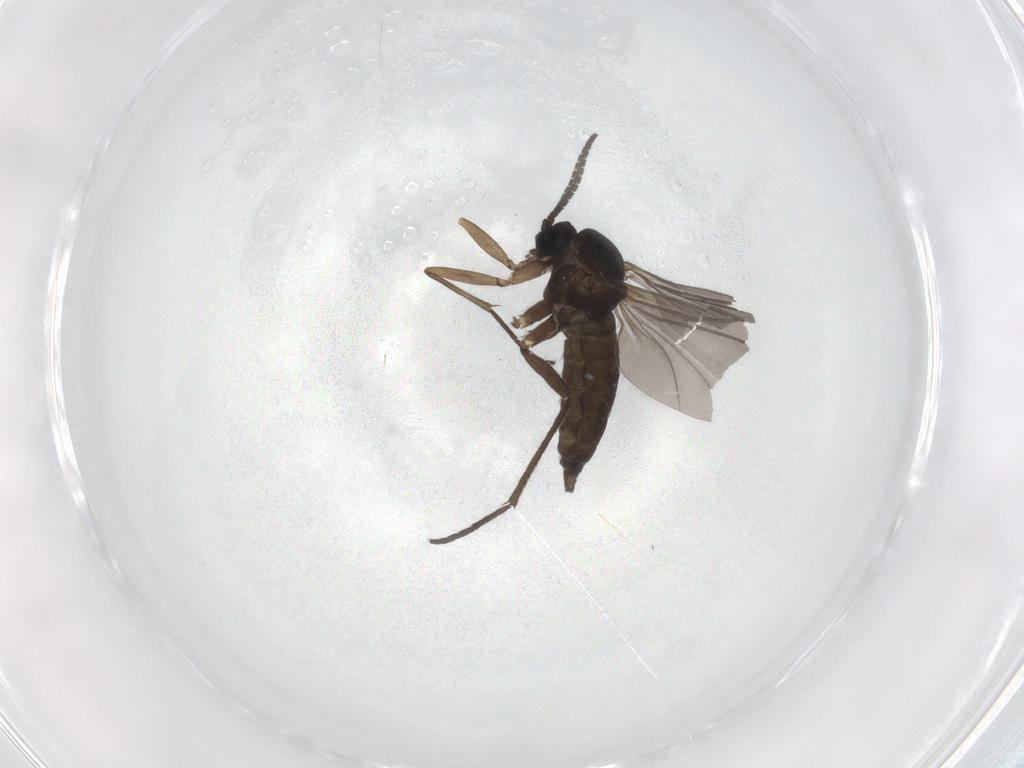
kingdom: Animalia
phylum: Arthropoda
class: Insecta
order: Diptera
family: Sciaridae
